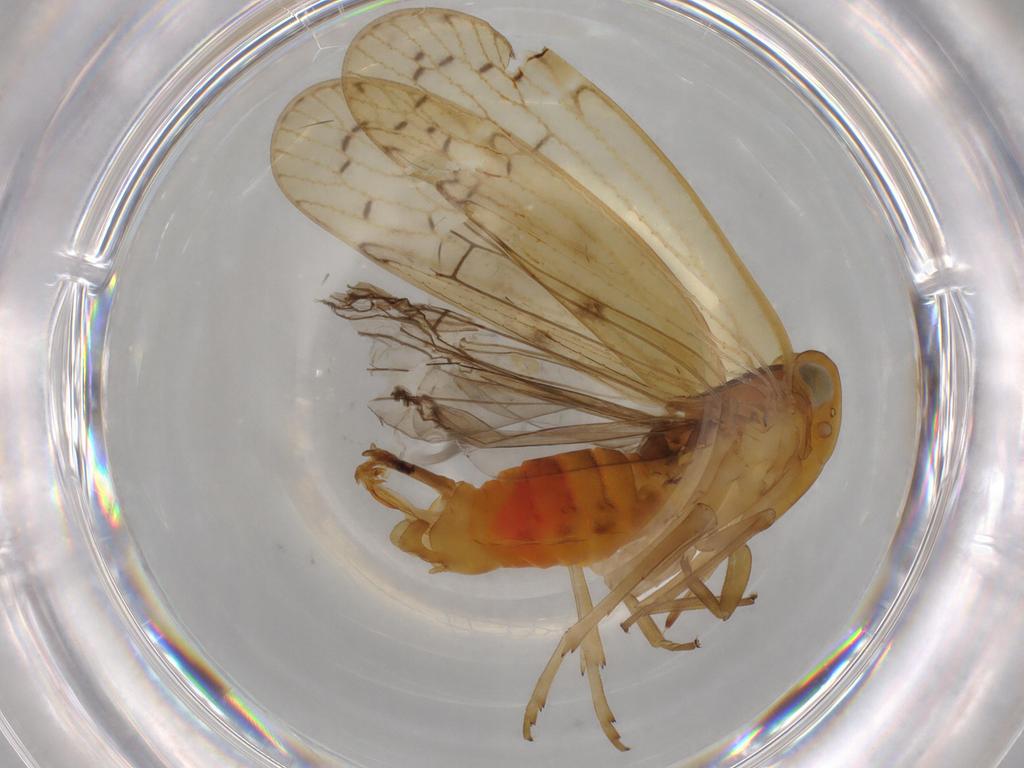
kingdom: Animalia
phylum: Arthropoda
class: Insecta
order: Hemiptera
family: Cixiidae
